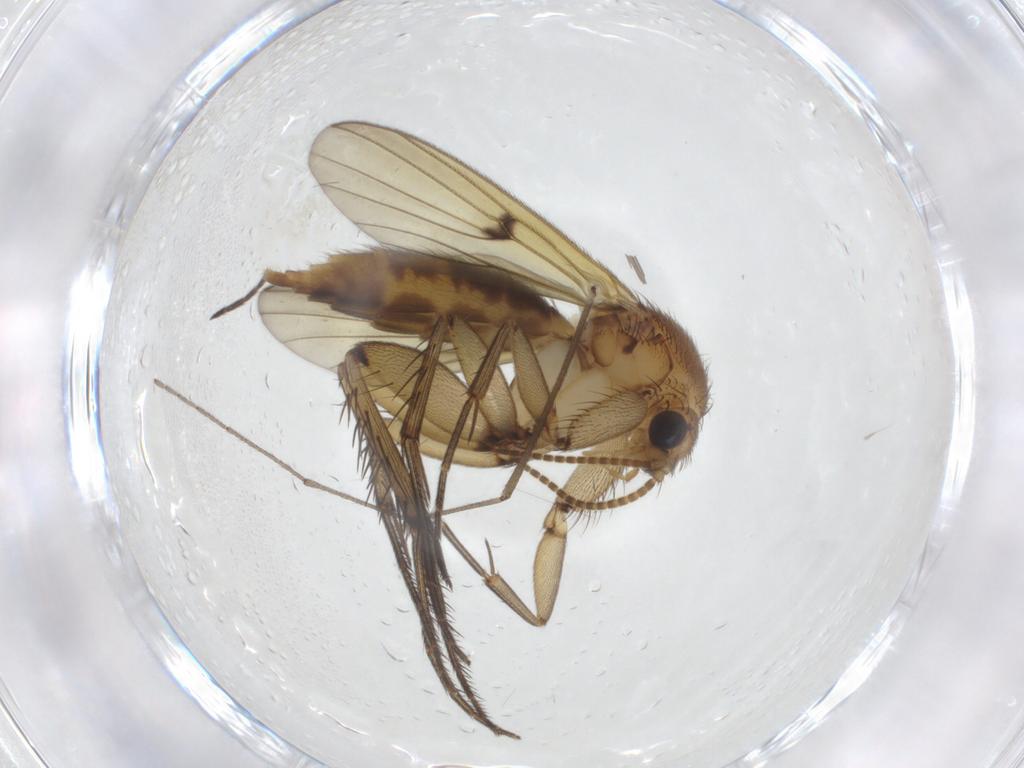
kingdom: Animalia
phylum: Arthropoda
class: Insecta
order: Diptera
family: Mycetophilidae
